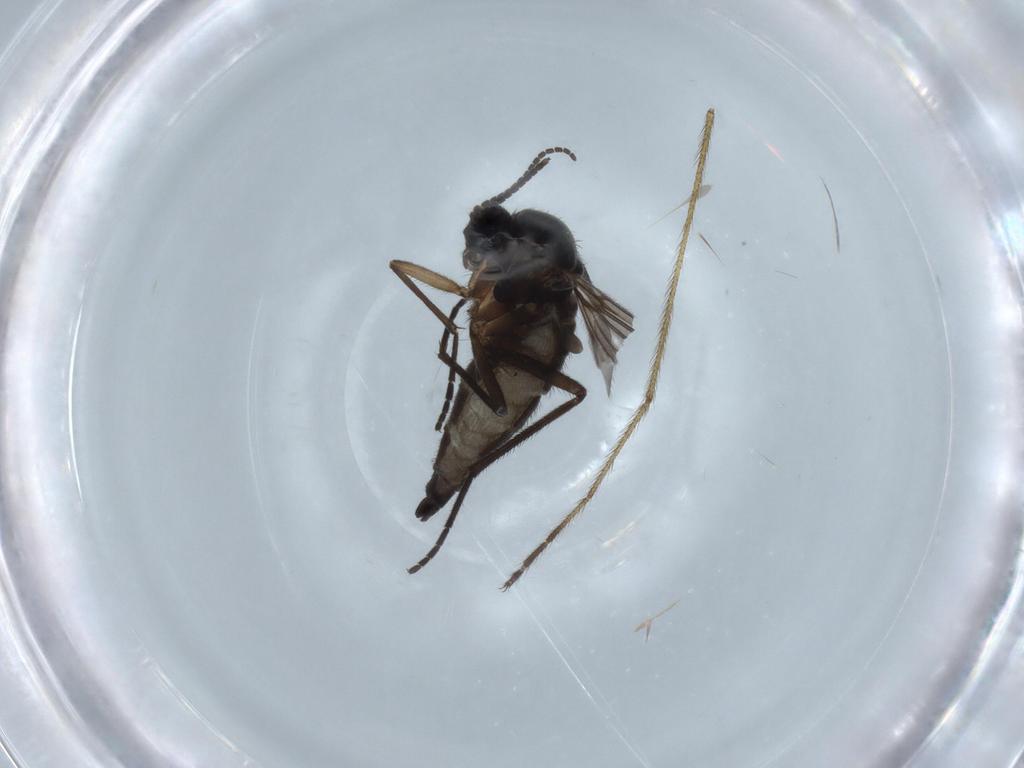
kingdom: Animalia
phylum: Arthropoda
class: Insecta
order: Diptera
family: Sciaridae
